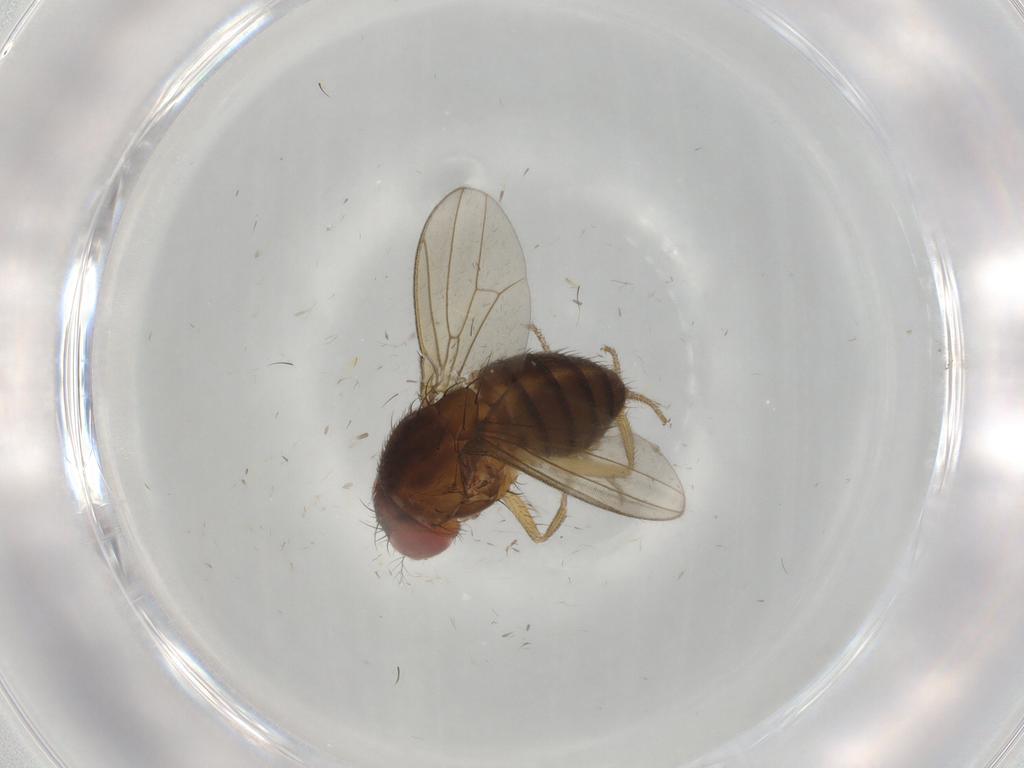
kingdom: Animalia
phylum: Arthropoda
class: Insecta
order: Diptera
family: Drosophilidae
